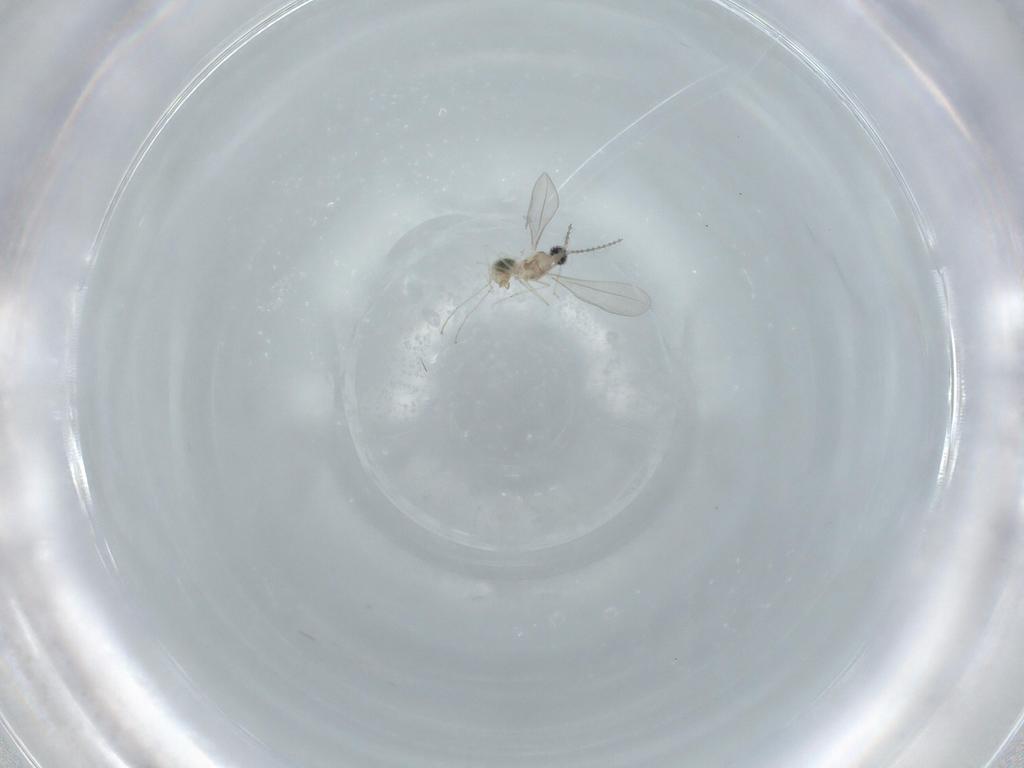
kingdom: Animalia
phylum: Arthropoda
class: Insecta
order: Diptera
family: Cecidomyiidae
